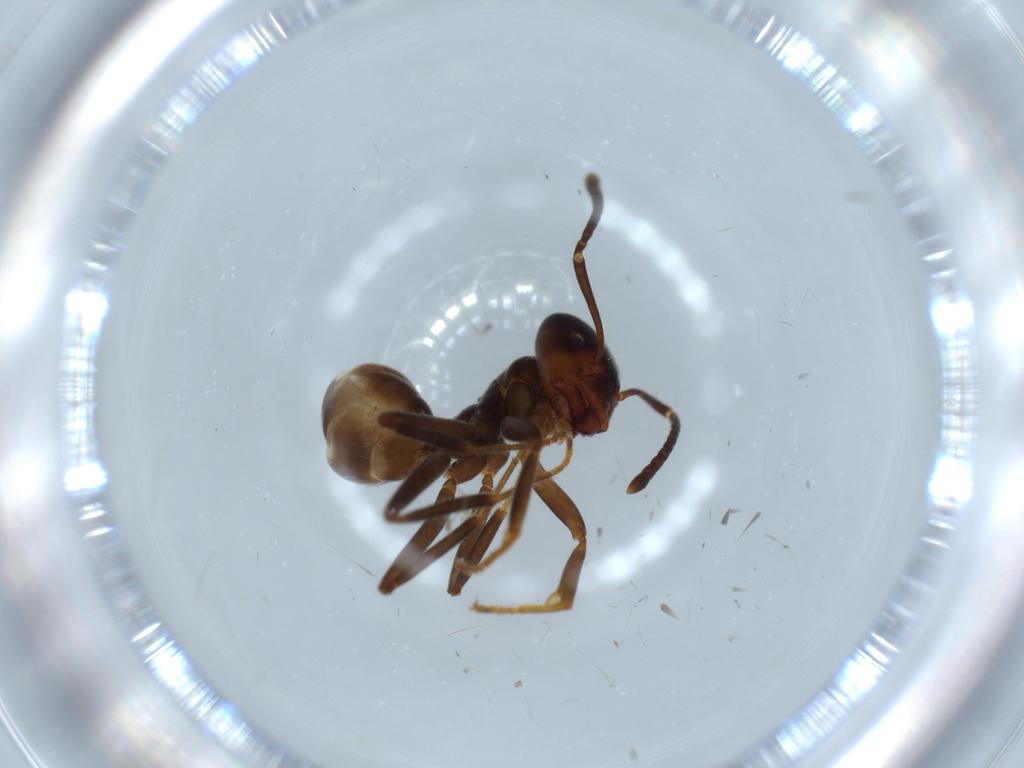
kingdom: Animalia
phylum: Arthropoda
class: Insecta
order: Hymenoptera
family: Formicidae
